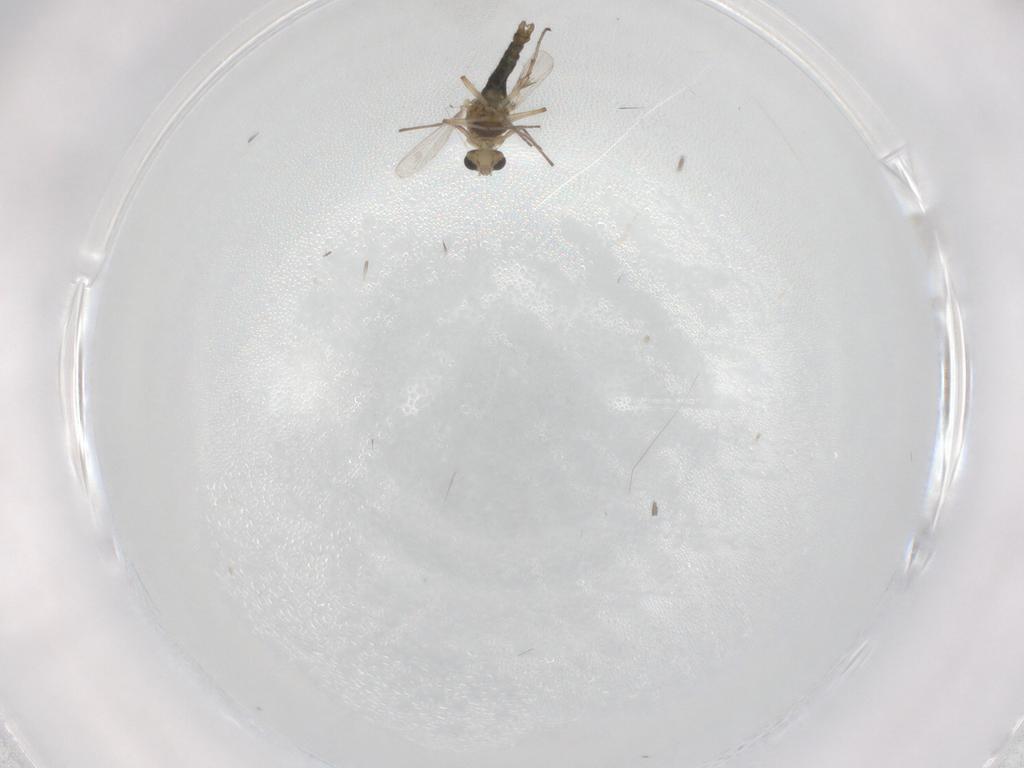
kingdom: Animalia
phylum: Arthropoda
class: Insecta
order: Diptera
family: Chironomidae
